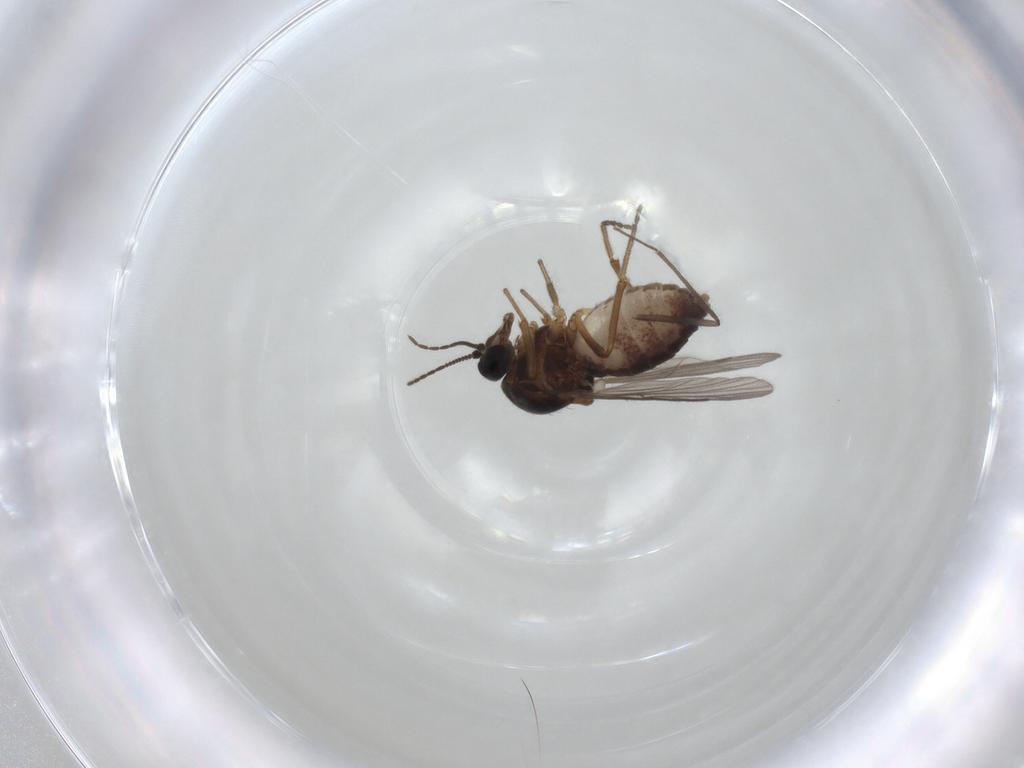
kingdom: Animalia
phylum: Arthropoda
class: Insecta
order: Diptera
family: Ceratopogonidae
